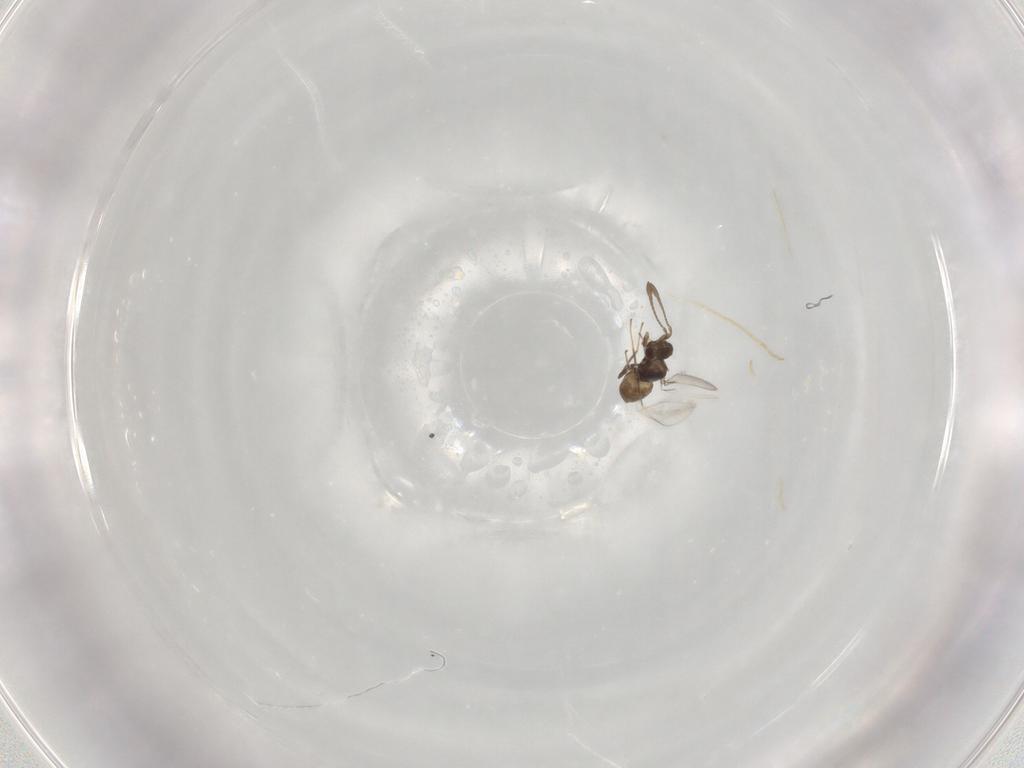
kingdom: Animalia
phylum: Arthropoda
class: Insecta
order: Hymenoptera
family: Mymaridae
